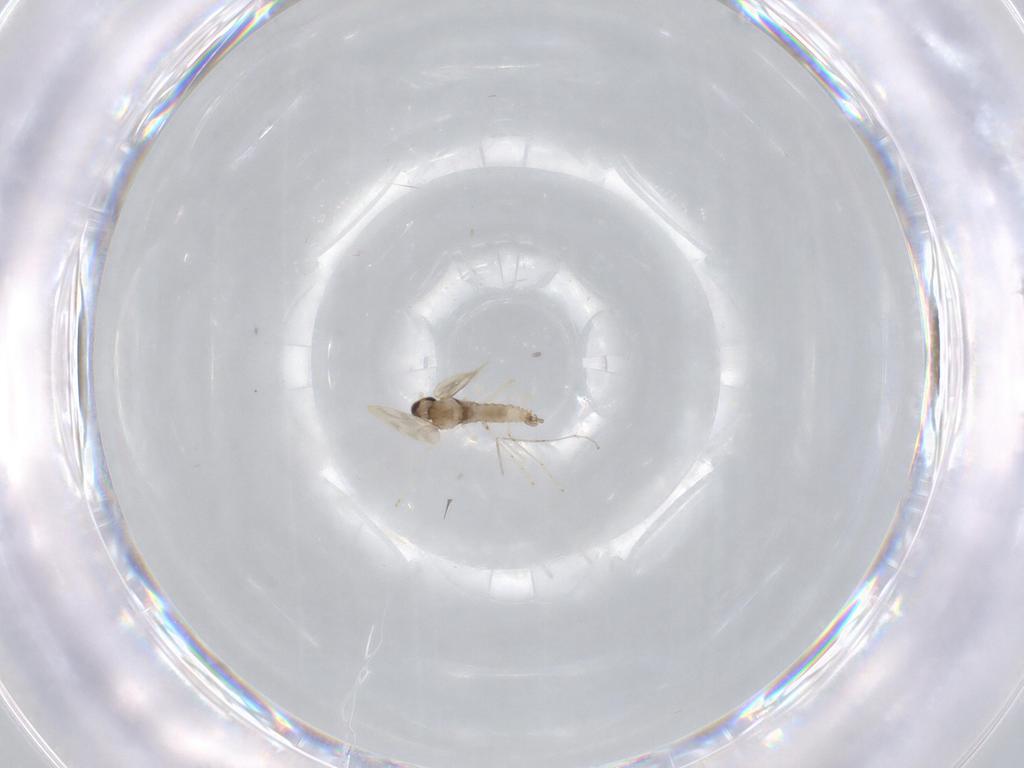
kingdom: Animalia
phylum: Arthropoda
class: Insecta
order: Diptera
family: Cecidomyiidae
